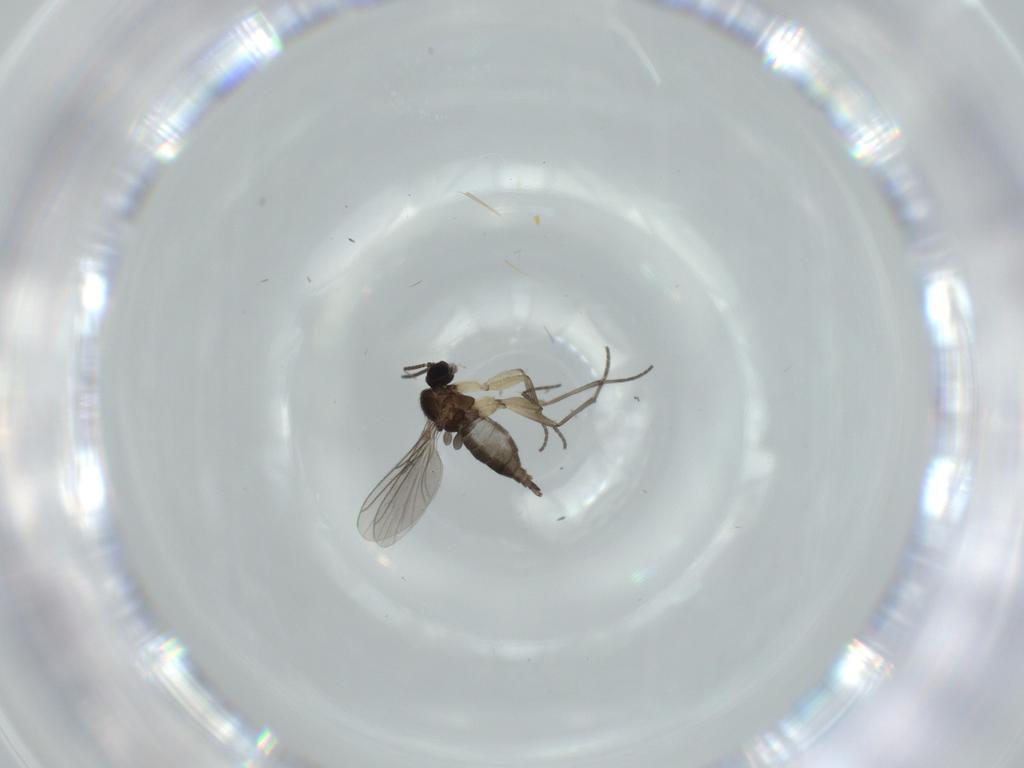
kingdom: Animalia
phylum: Arthropoda
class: Insecta
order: Diptera
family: Sciaridae
